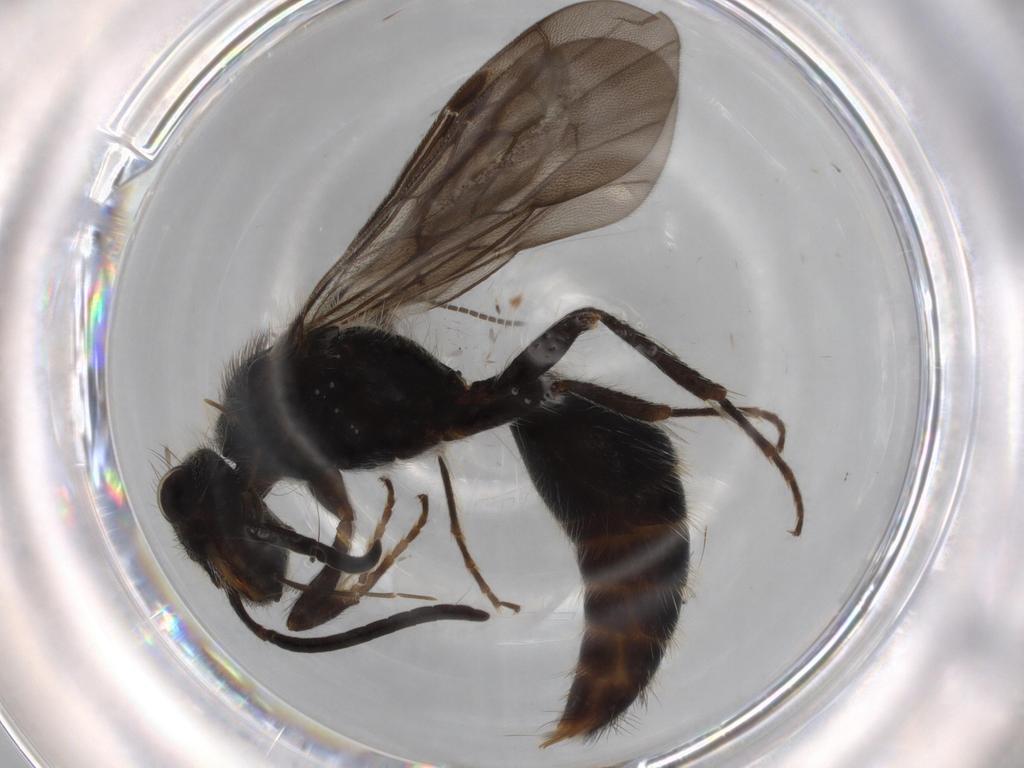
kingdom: Animalia
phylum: Arthropoda
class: Insecta
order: Hymenoptera
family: Mutillidae
